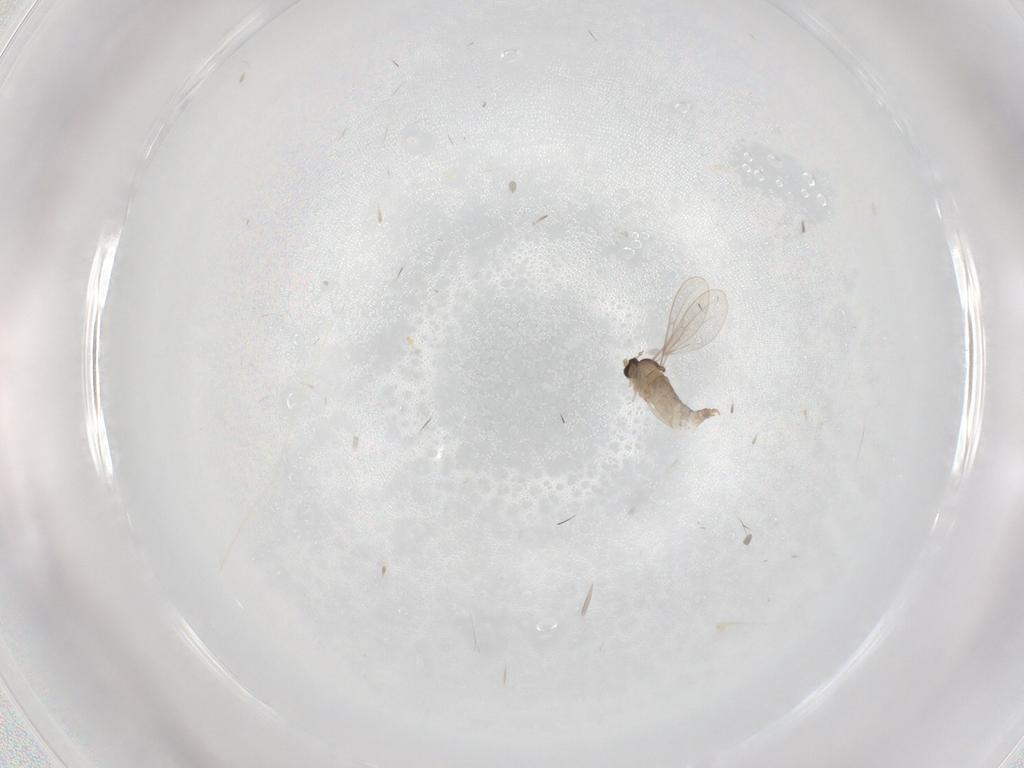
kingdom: Animalia
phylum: Arthropoda
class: Insecta
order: Diptera
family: Cecidomyiidae
